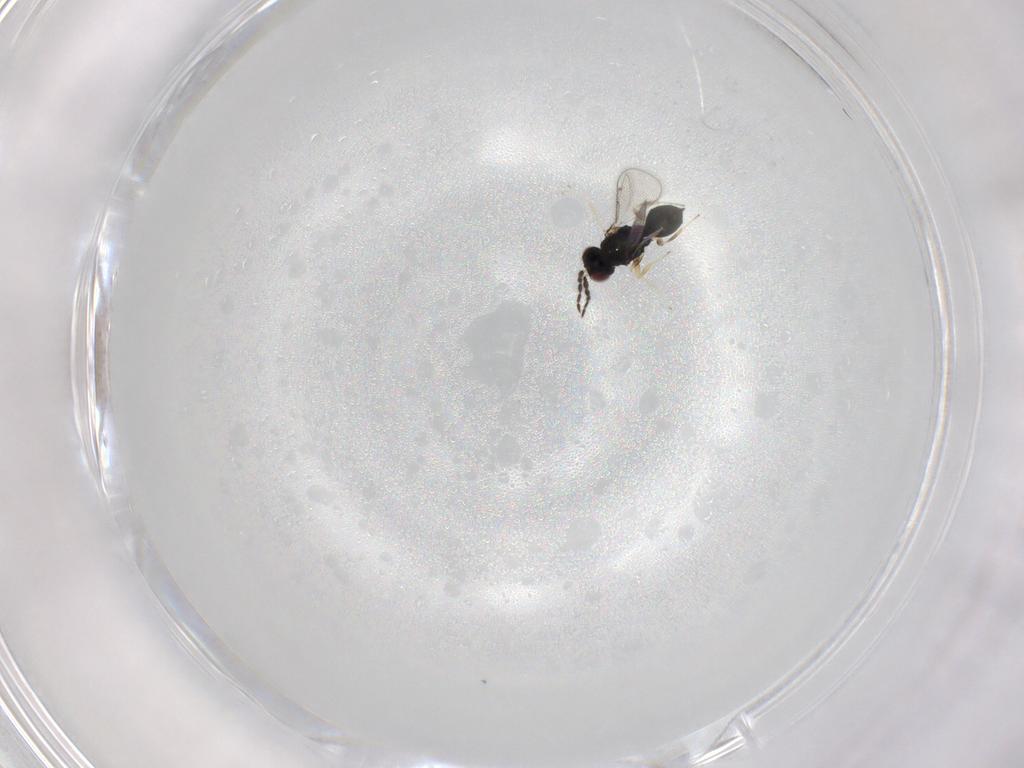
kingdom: Animalia
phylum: Arthropoda
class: Insecta
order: Hymenoptera
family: Eulophidae
